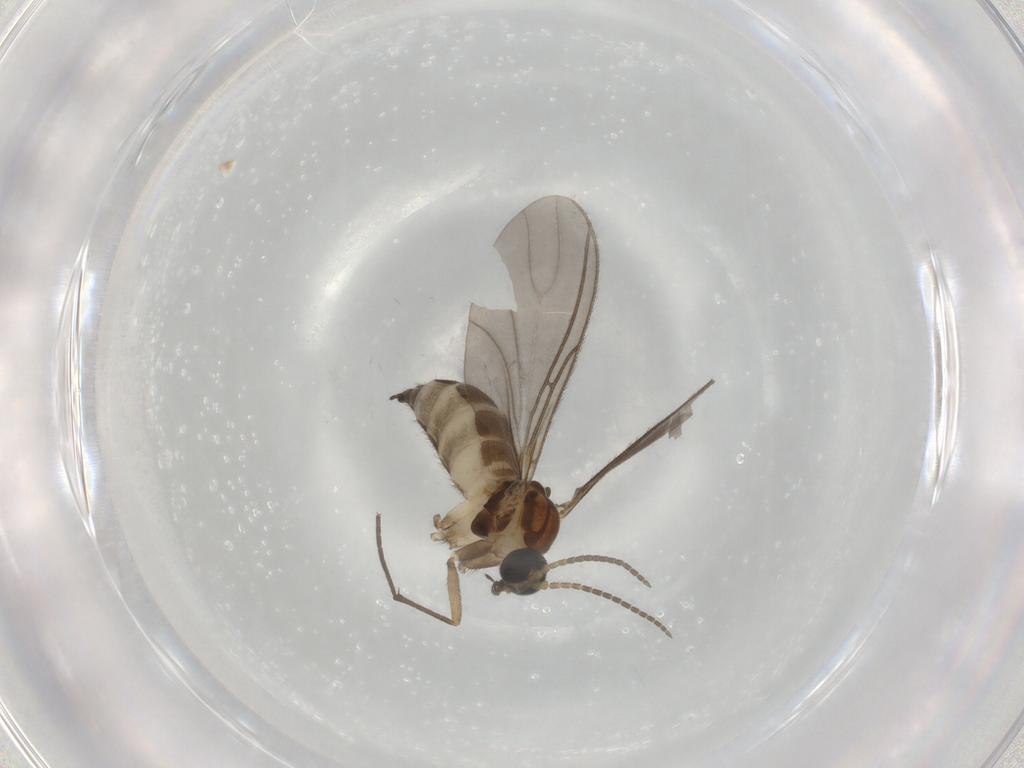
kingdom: Animalia
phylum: Arthropoda
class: Insecta
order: Diptera
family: Sciaridae
